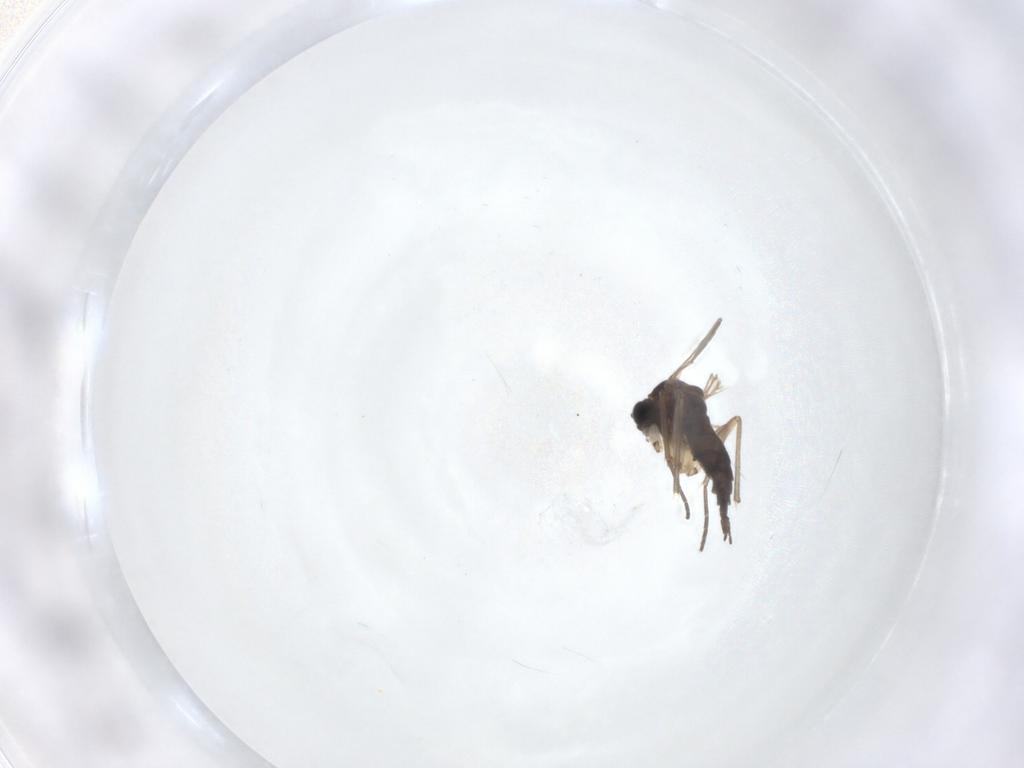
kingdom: Animalia
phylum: Arthropoda
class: Insecta
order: Diptera
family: Sciaridae
